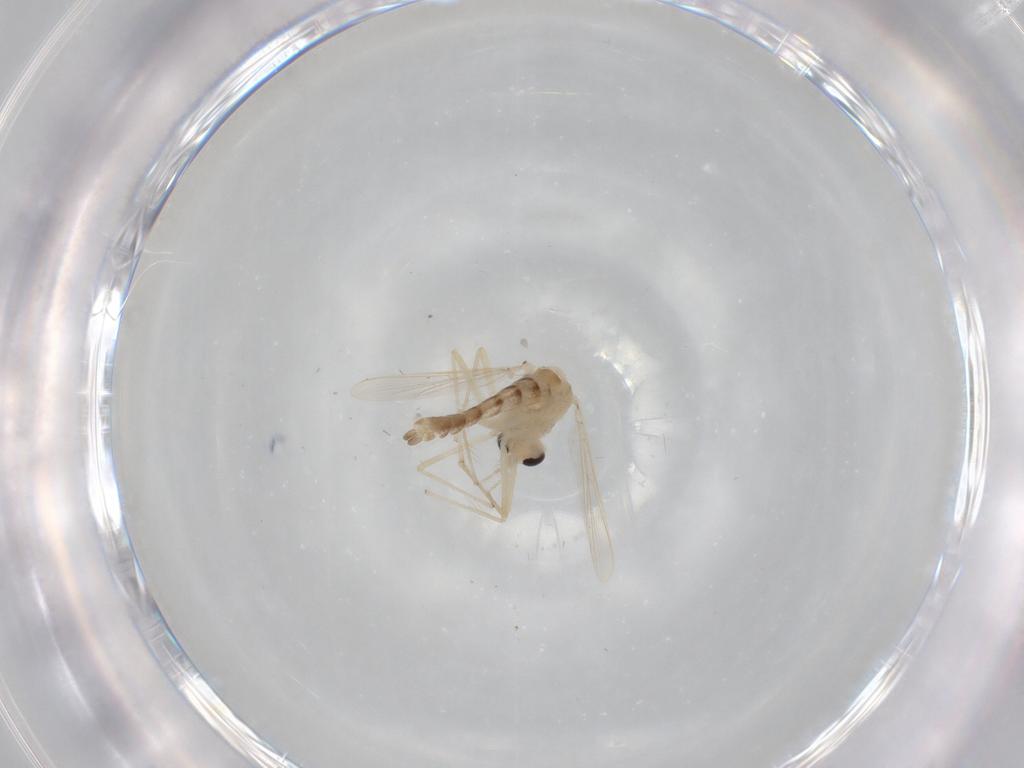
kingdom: Animalia
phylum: Arthropoda
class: Insecta
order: Diptera
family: Chironomidae
